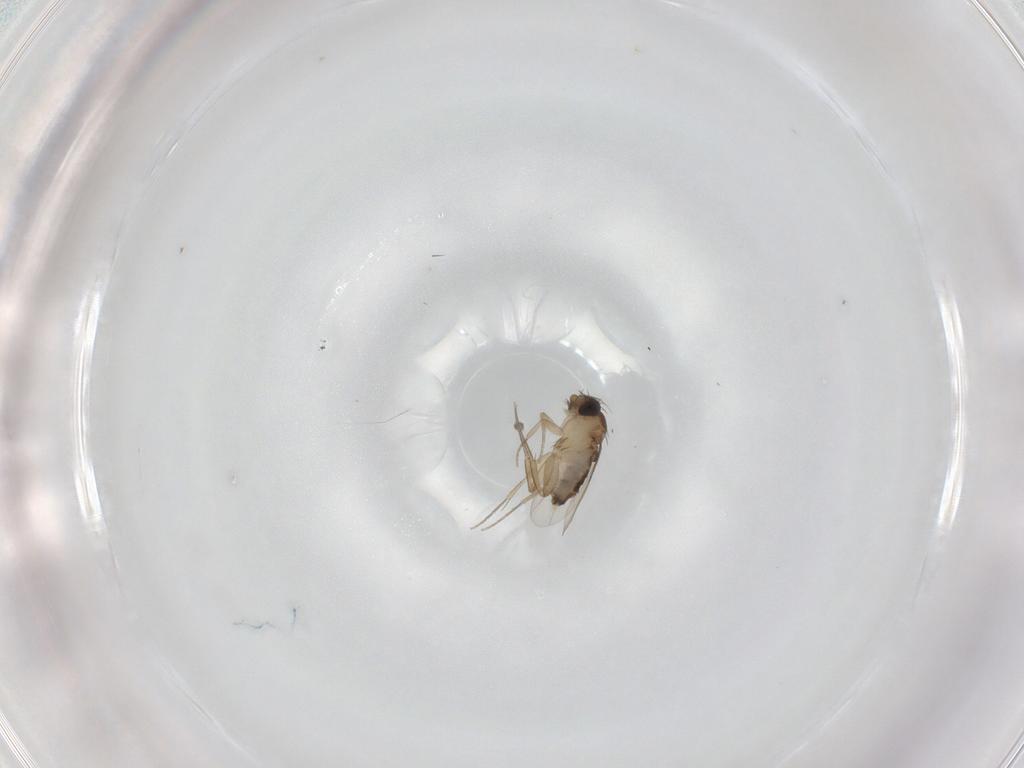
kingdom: Animalia
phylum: Arthropoda
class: Insecta
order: Diptera
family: Phoridae
